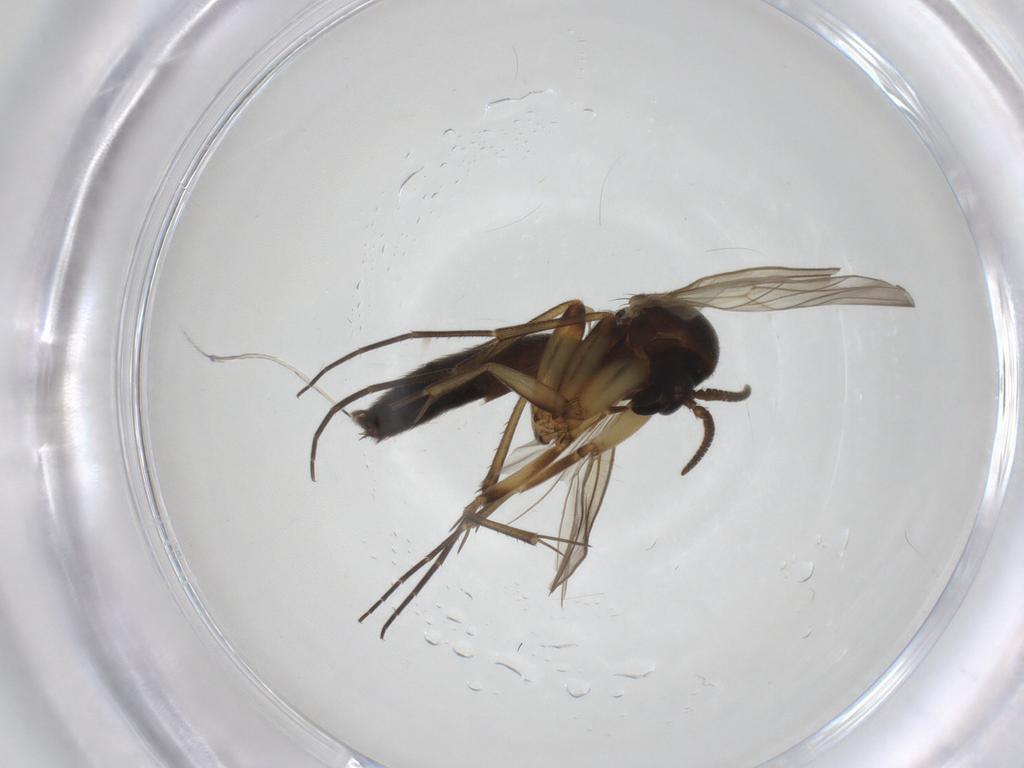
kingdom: Animalia
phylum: Arthropoda
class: Insecta
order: Diptera
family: Mycetophilidae
